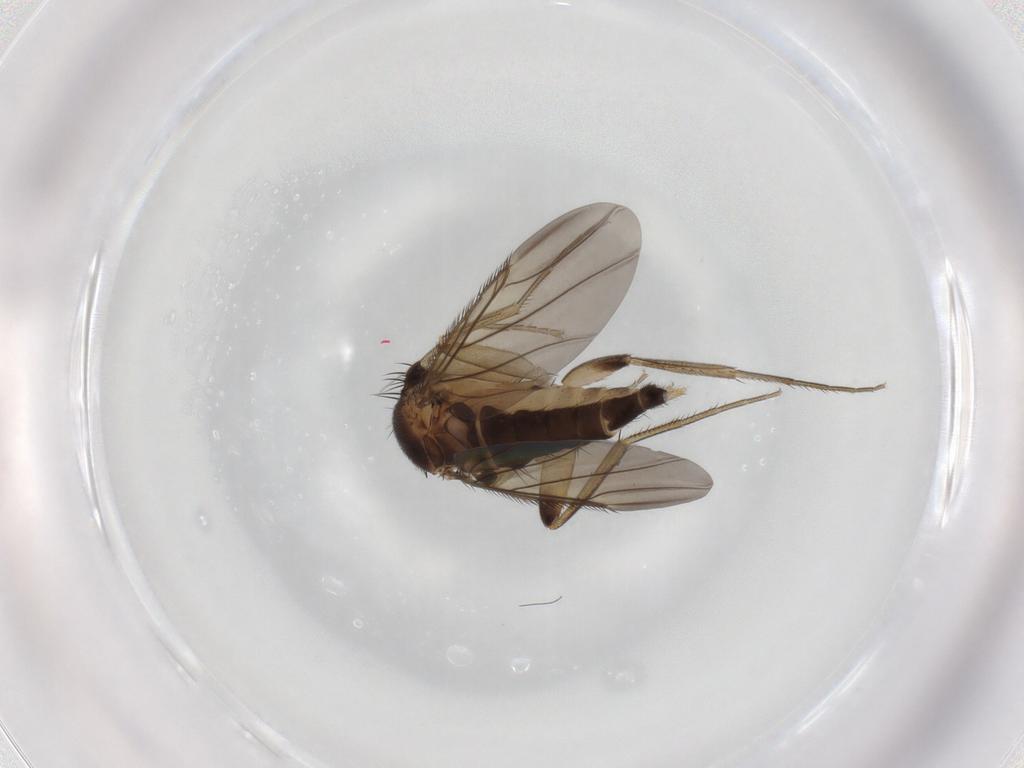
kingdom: Animalia
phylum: Arthropoda
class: Insecta
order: Diptera
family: Phoridae
